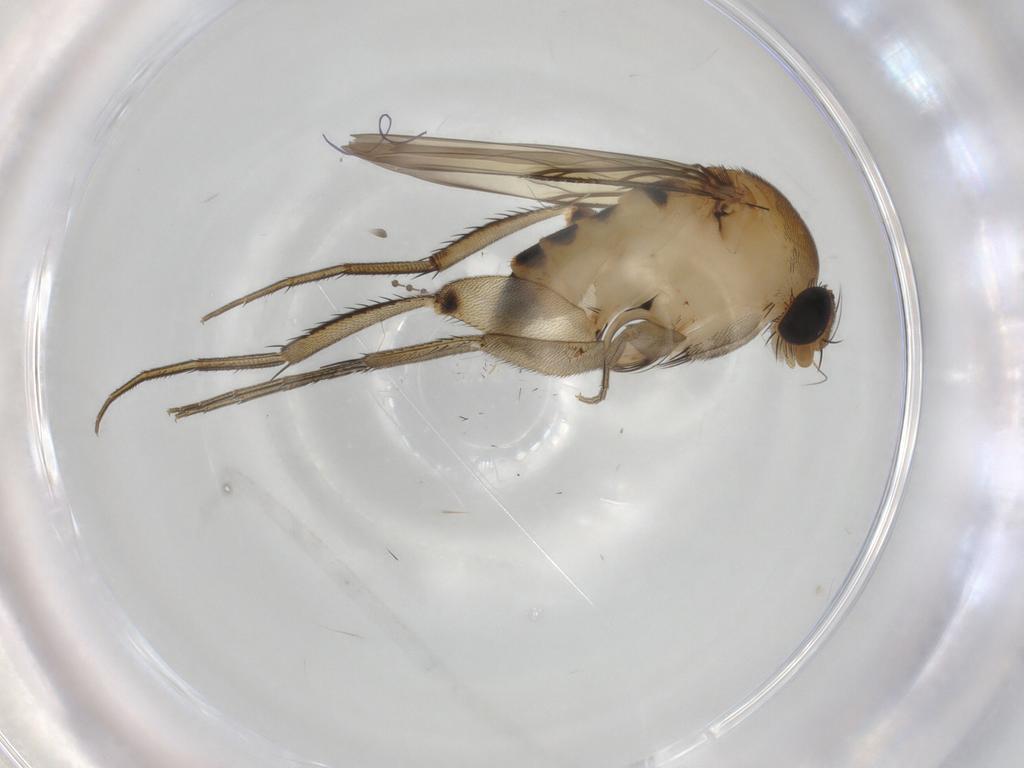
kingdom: Animalia
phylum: Arthropoda
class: Insecta
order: Diptera
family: Phoridae
